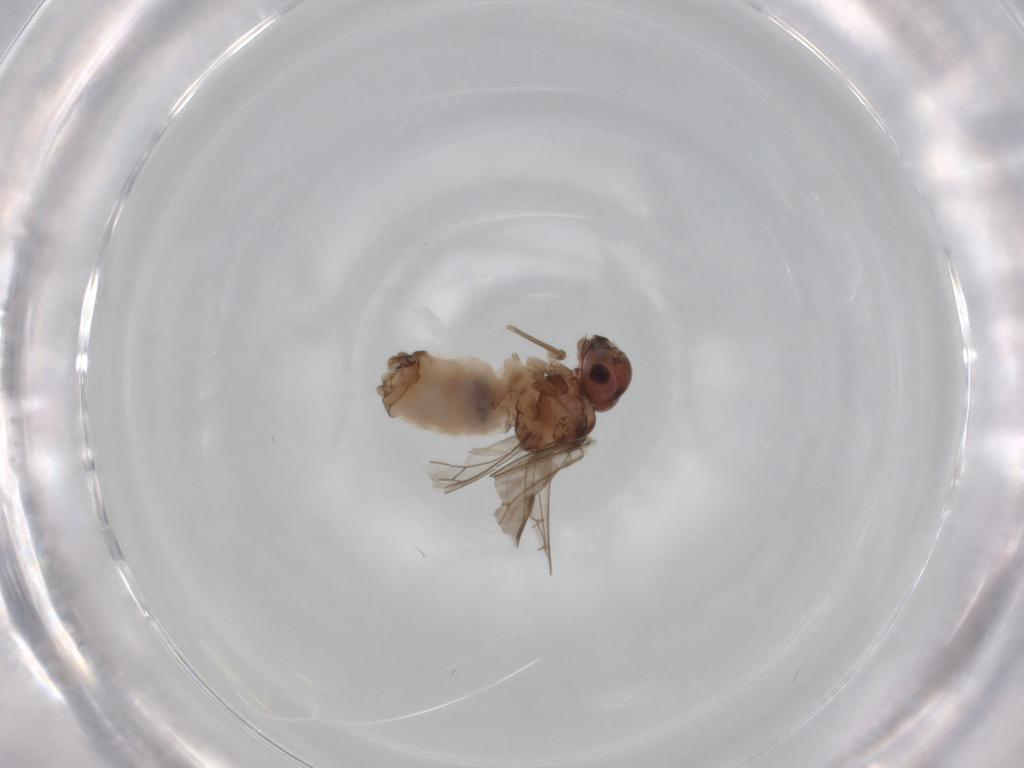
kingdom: Animalia
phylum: Arthropoda
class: Insecta
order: Psocodea
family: Peripsocidae
